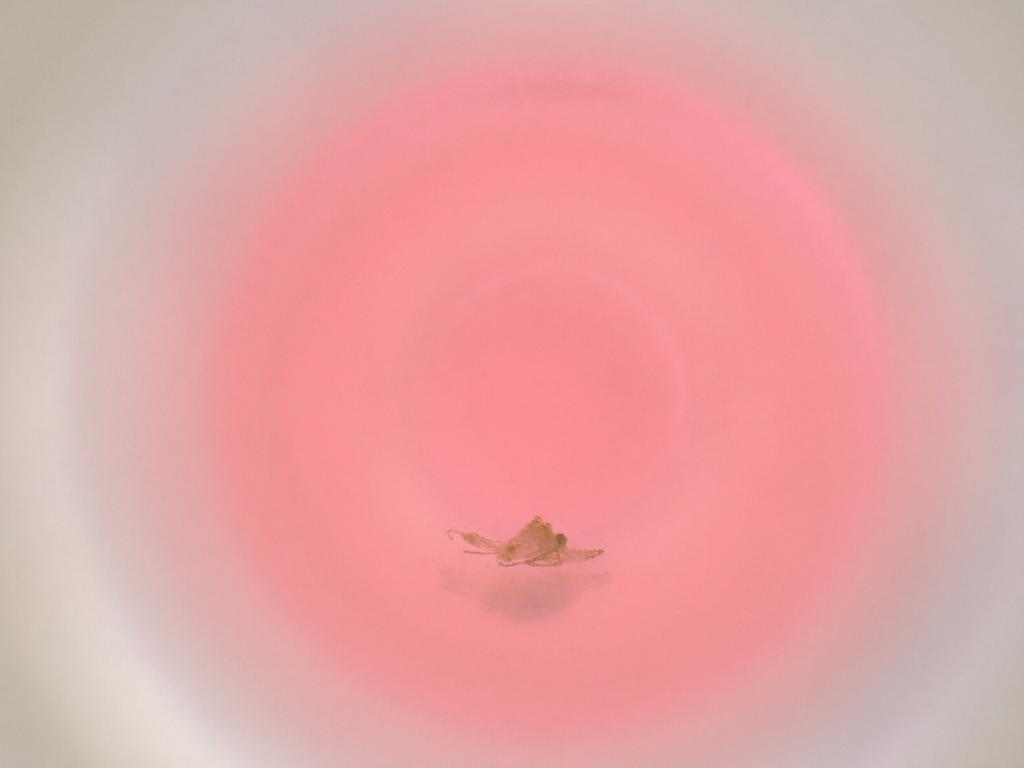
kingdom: Animalia
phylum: Arthropoda
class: Insecta
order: Diptera
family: Cecidomyiidae
